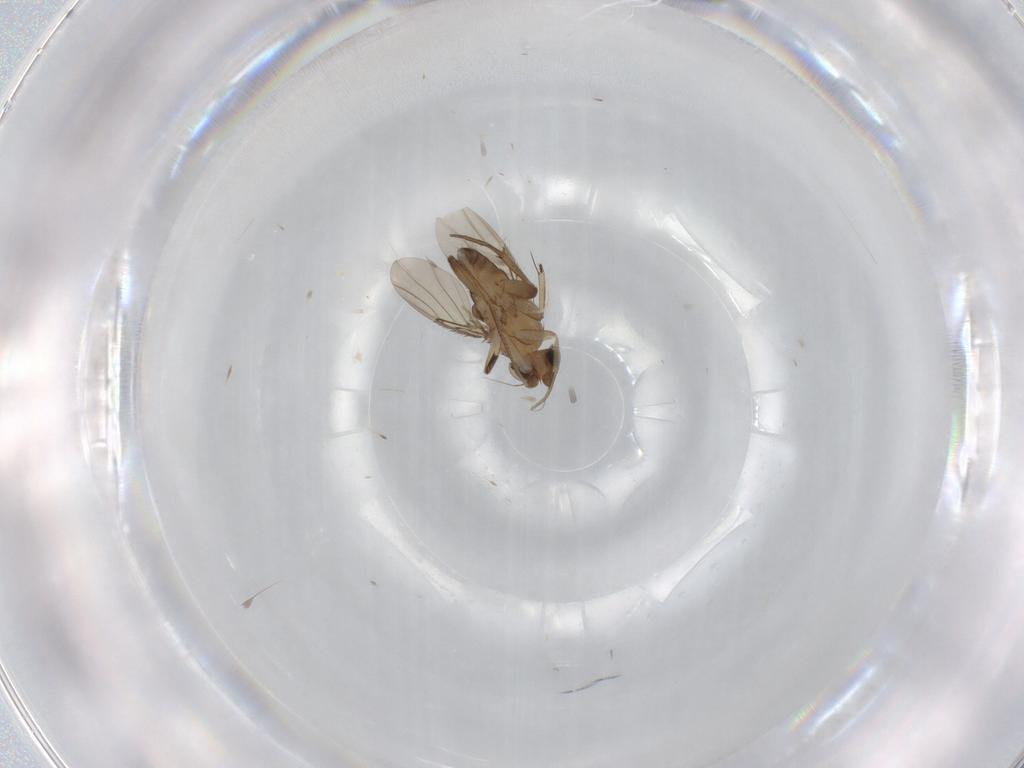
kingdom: Animalia
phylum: Arthropoda
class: Insecta
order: Diptera
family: Phoridae
